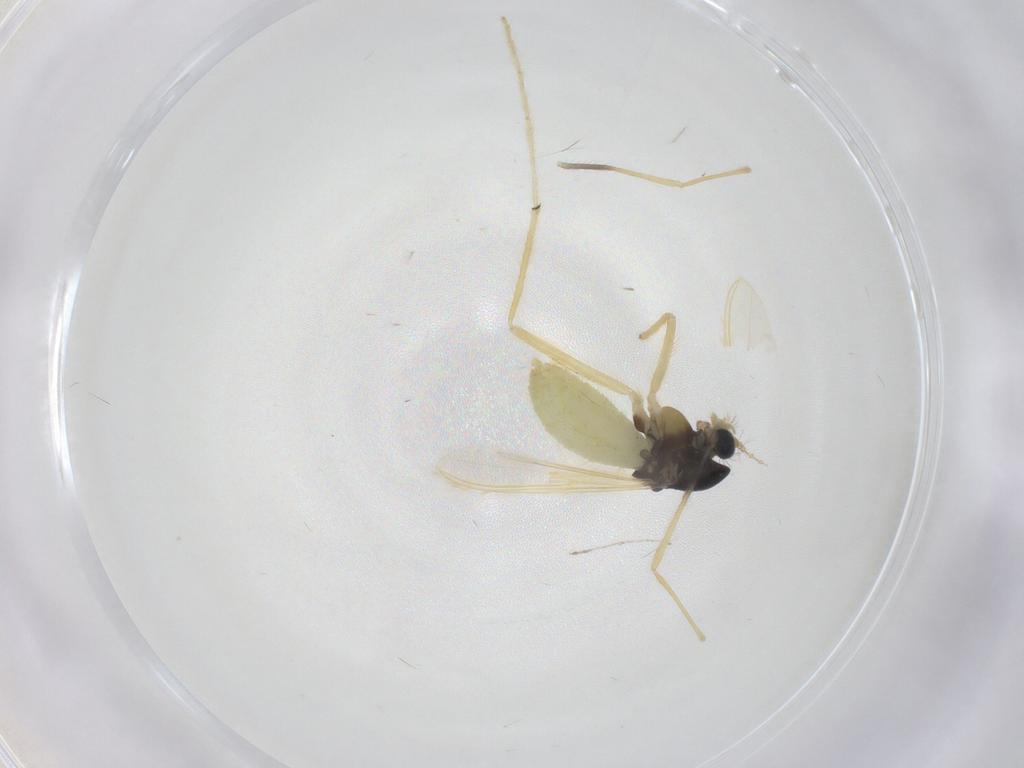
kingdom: Animalia
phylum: Arthropoda
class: Insecta
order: Diptera
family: Chironomidae
